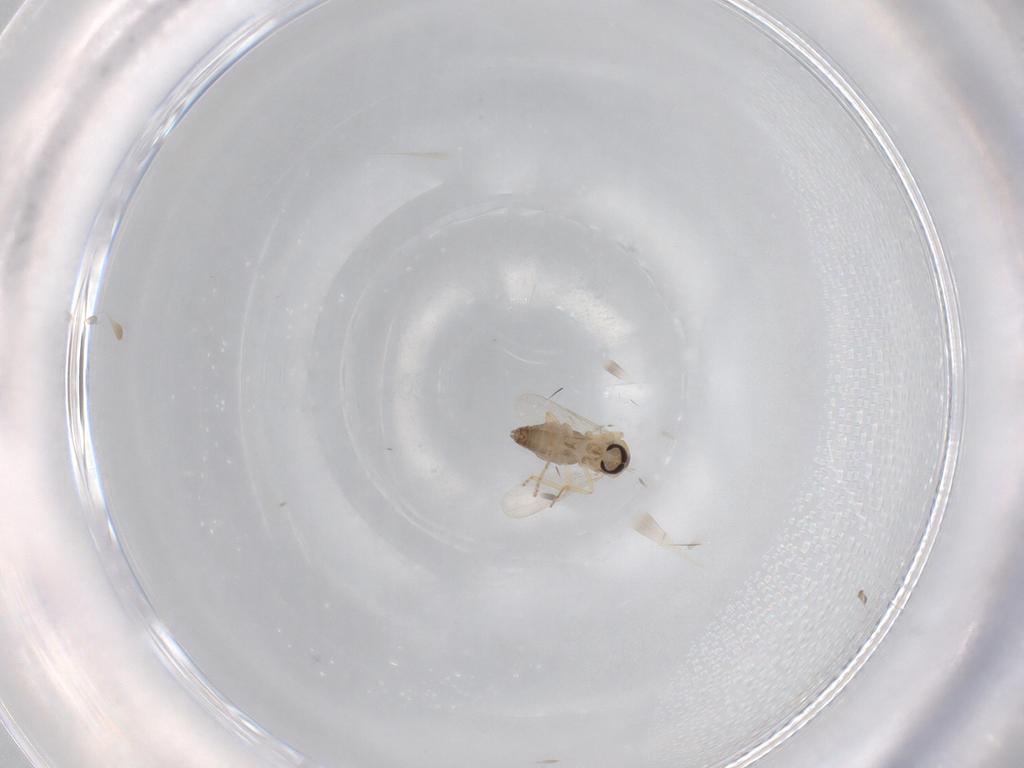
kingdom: Animalia
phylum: Arthropoda
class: Insecta
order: Diptera
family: Ceratopogonidae
